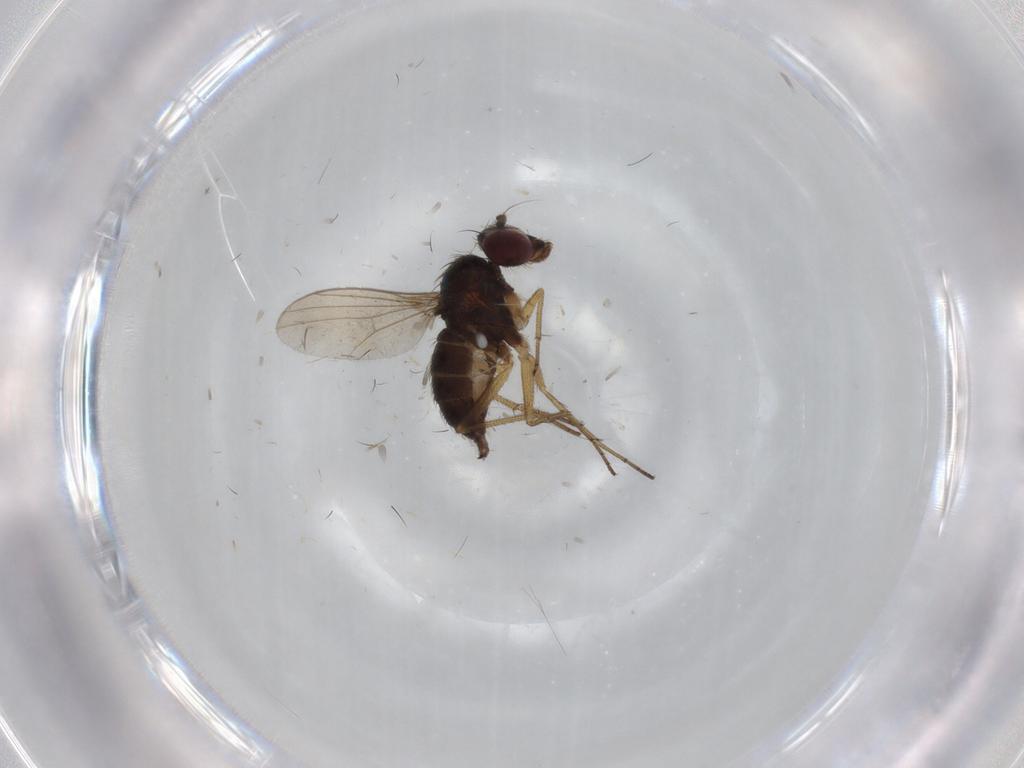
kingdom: Animalia
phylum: Arthropoda
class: Insecta
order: Diptera
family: Dolichopodidae
